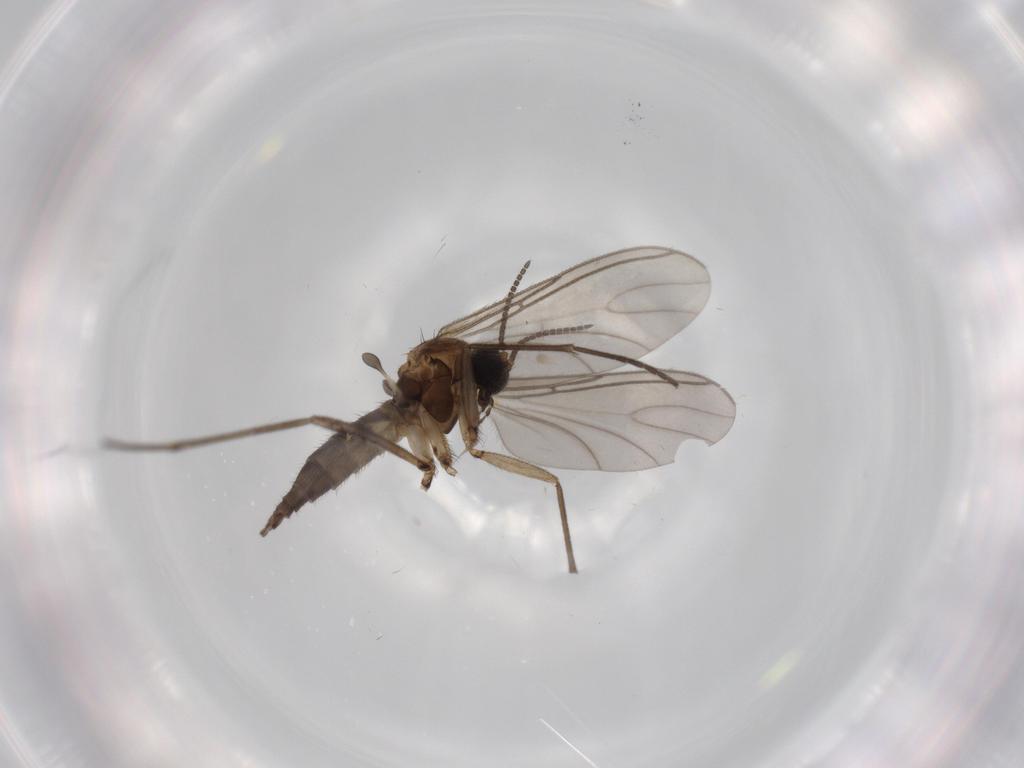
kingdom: Animalia
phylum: Arthropoda
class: Insecta
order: Diptera
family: Sciaridae
